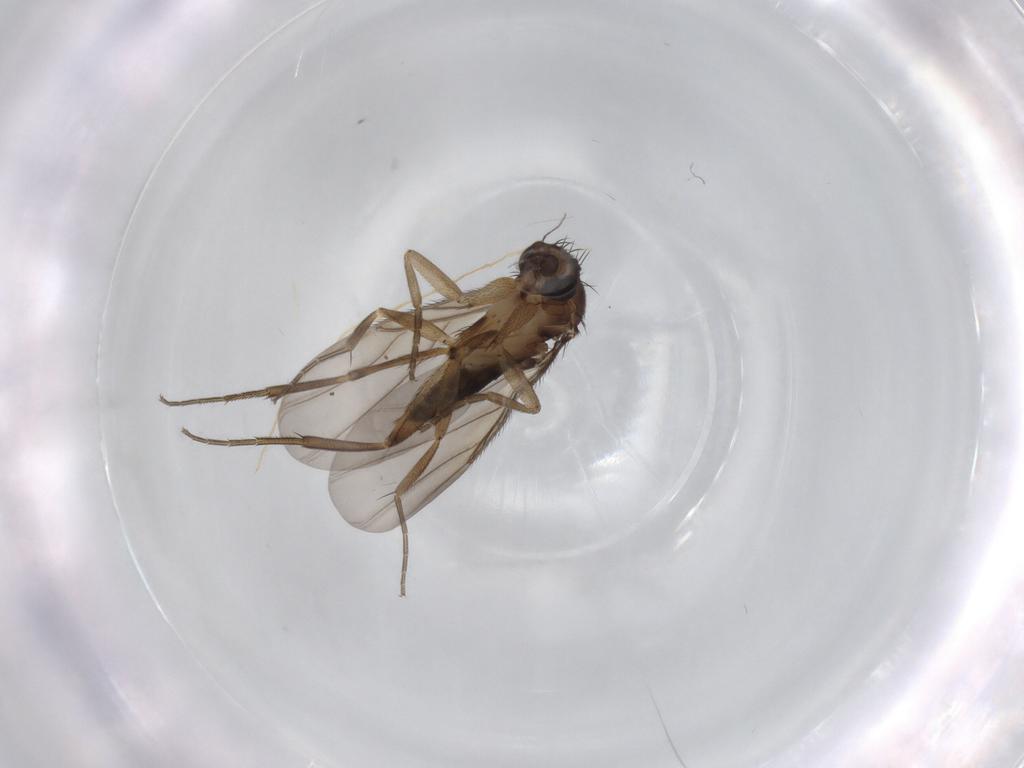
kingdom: Animalia
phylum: Arthropoda
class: Insecta
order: Diptera
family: Phoridae
